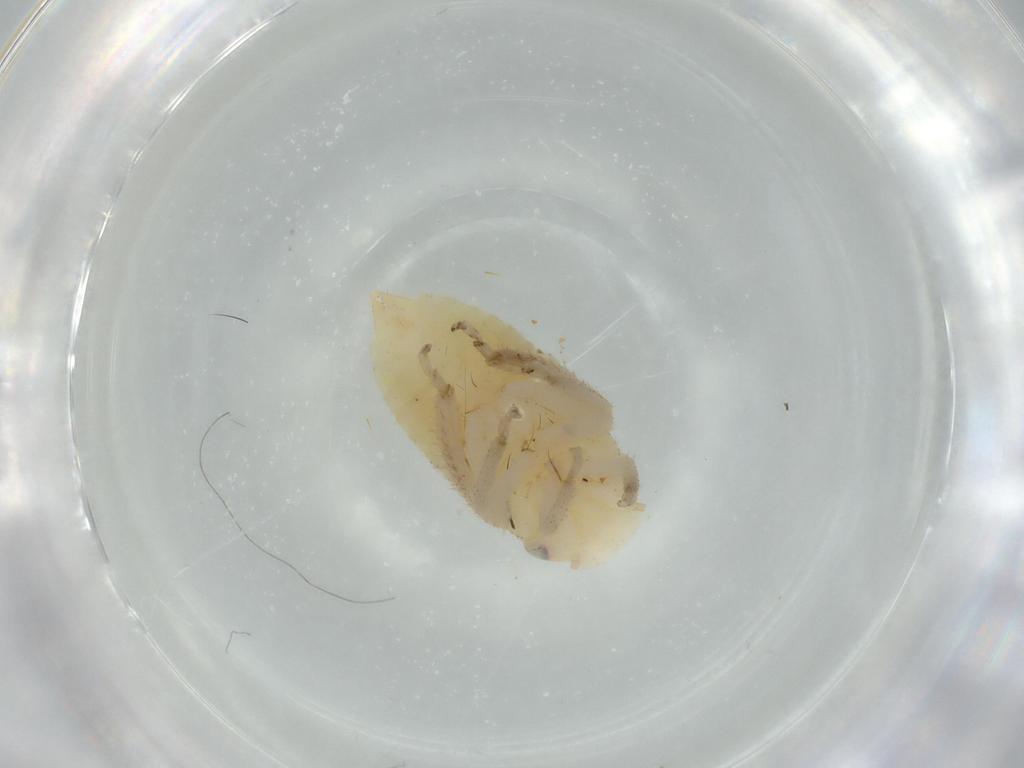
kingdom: Animalia
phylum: Arthropoda
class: Insecta
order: Hemiptera
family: Cicadellidae
